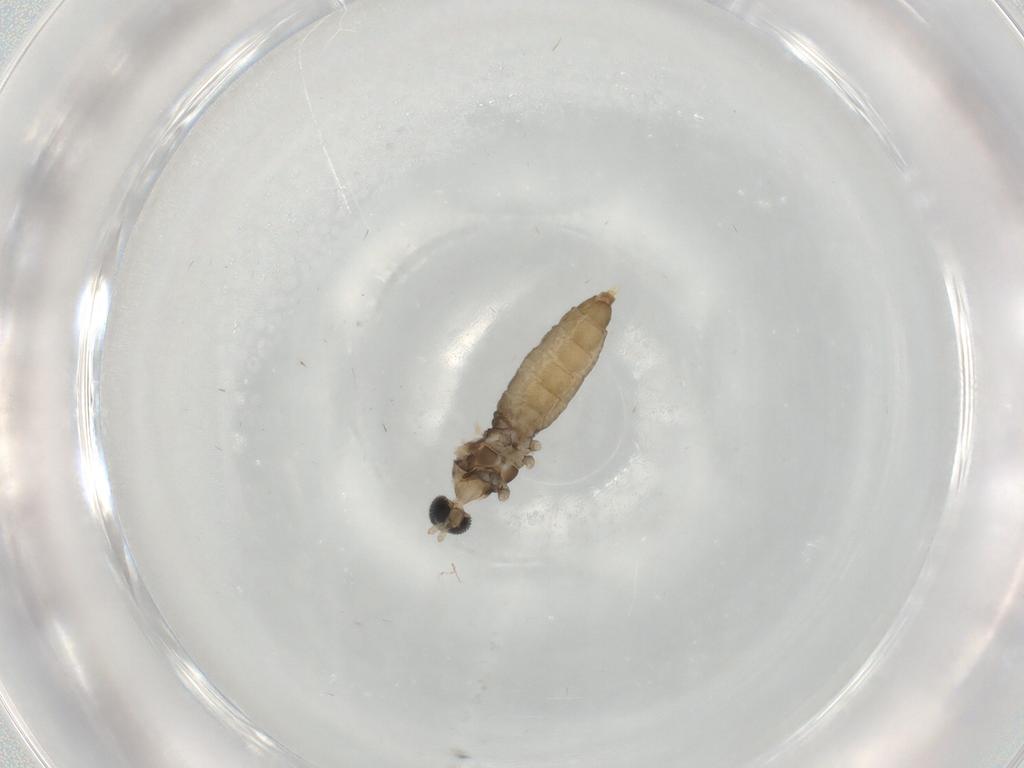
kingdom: Animalia
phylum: Arthropoda
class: Insecta
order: Diptera
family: Cecidomyiidae
